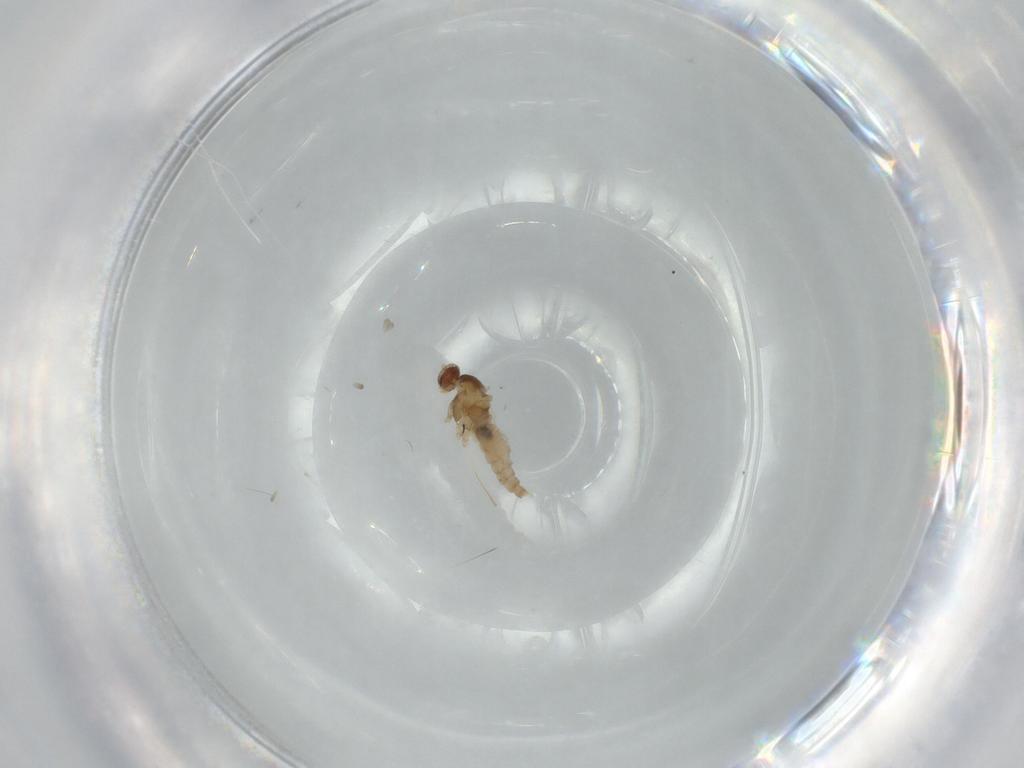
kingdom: Animalia
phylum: Arthropoda
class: Insecta
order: Diptera
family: Cecidomyiidae
